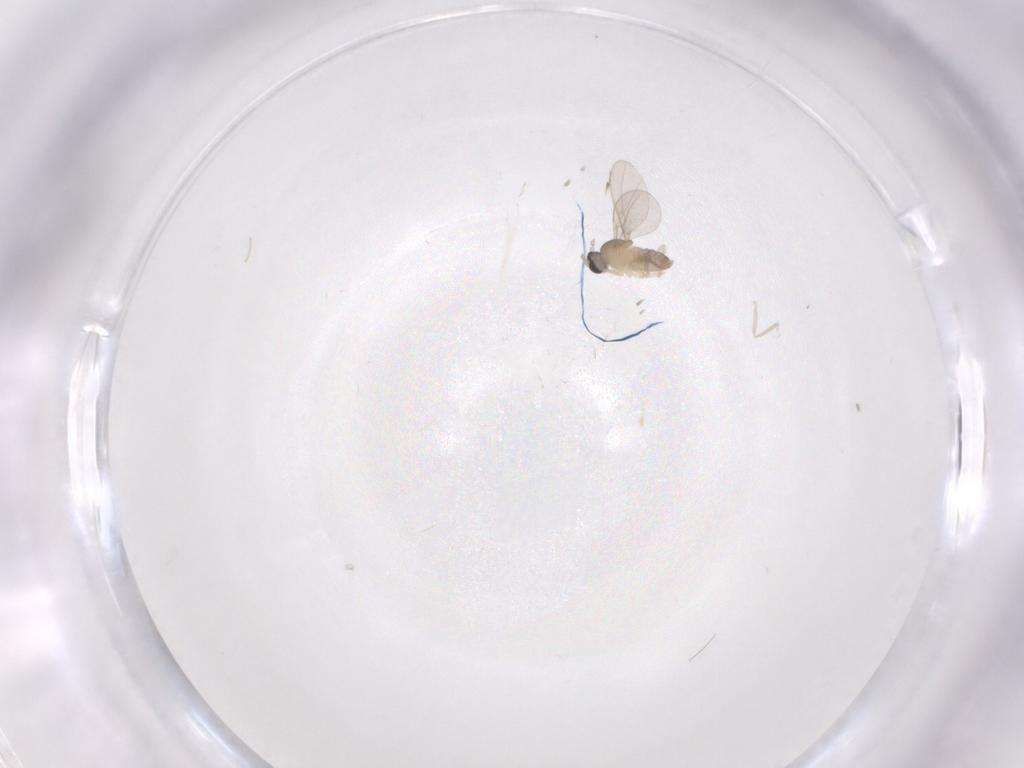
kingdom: Animalia
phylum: Arthropoda
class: Insecta
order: Diptera
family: Cecidomyiidae
